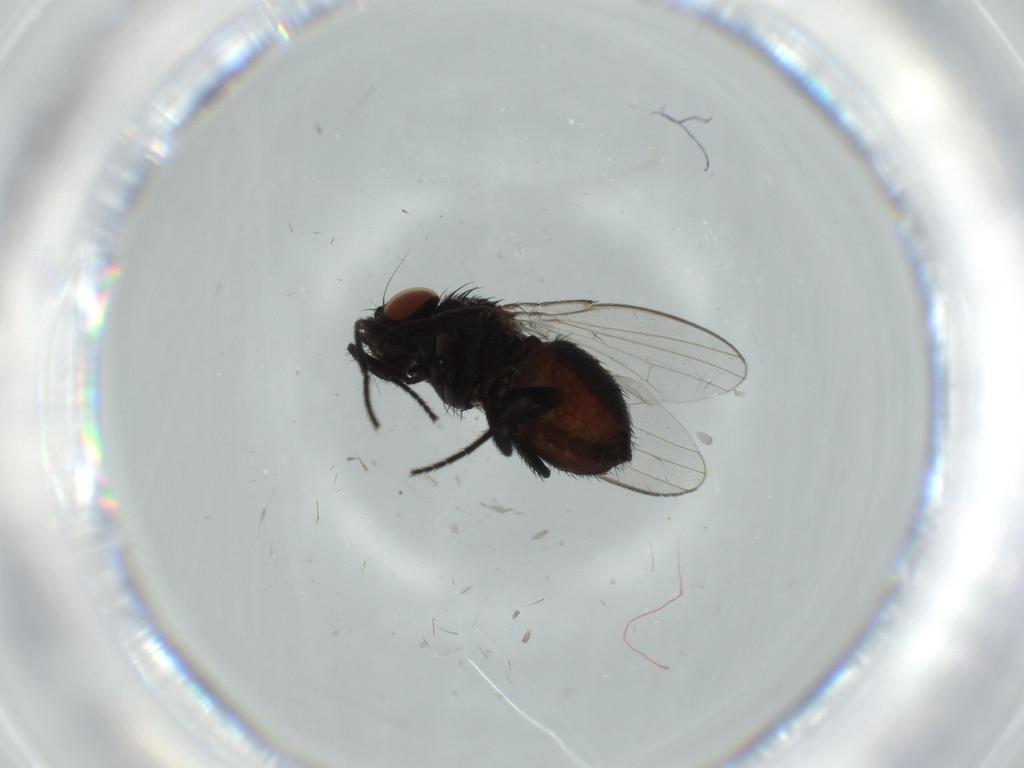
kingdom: Animalia
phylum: Arthropoda
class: Insecta
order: Diptera
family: Milichiidae
